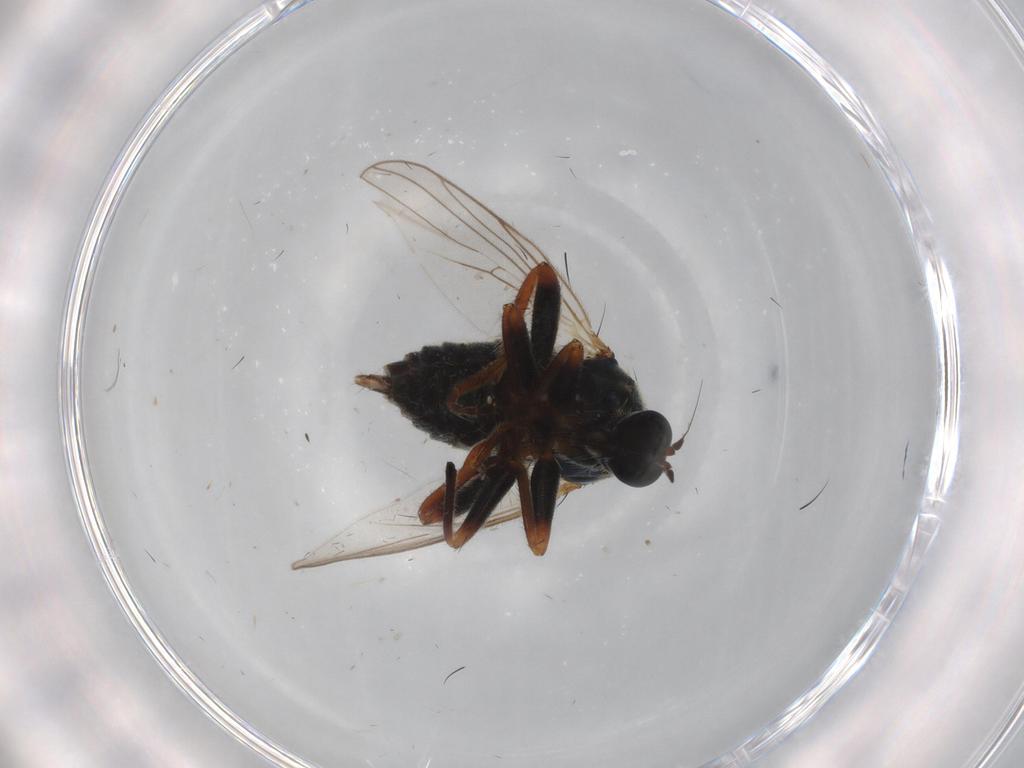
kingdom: Animalia
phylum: Arthropoda
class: Insecta
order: Diptera
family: Hybotidae
